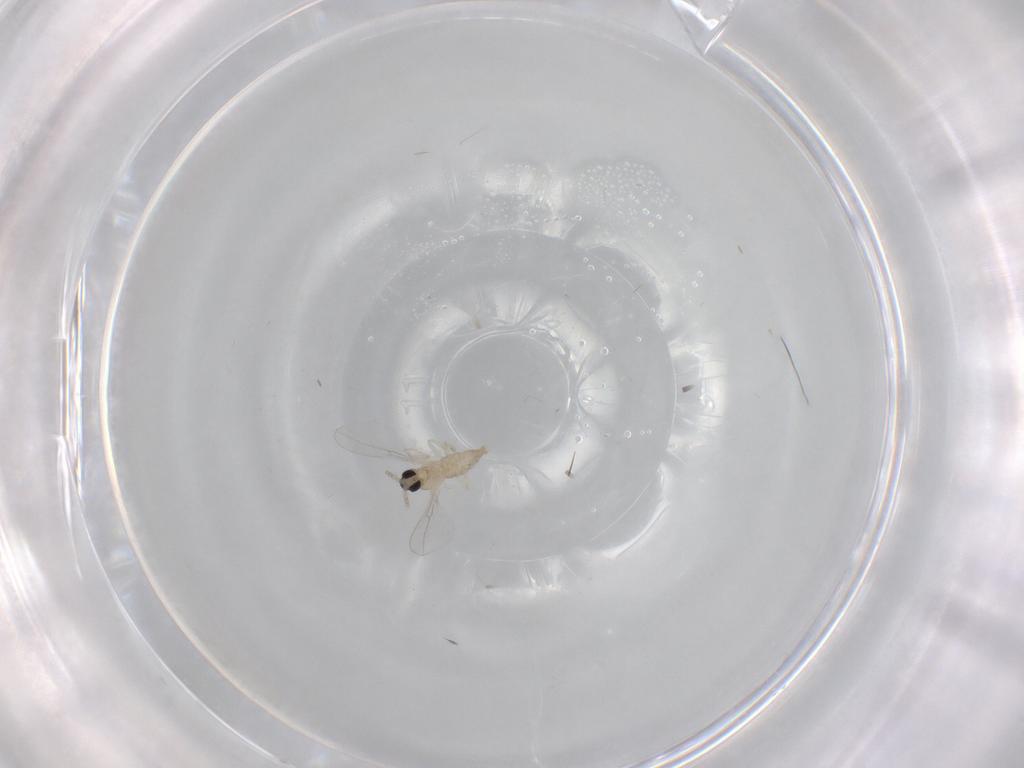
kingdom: Animalia
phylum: Arthropoda
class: Insecta
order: Diptera
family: Cecidomyiidae
